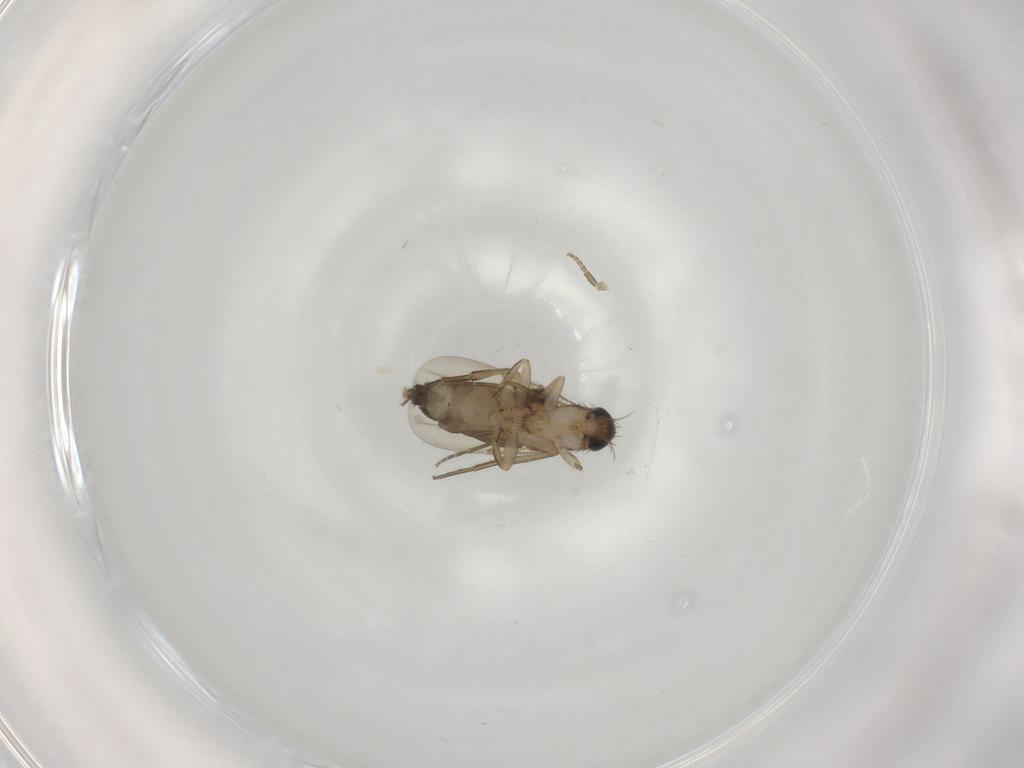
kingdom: Animalia
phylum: Arthropoda
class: Insecta
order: Diptera
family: Phoridae
